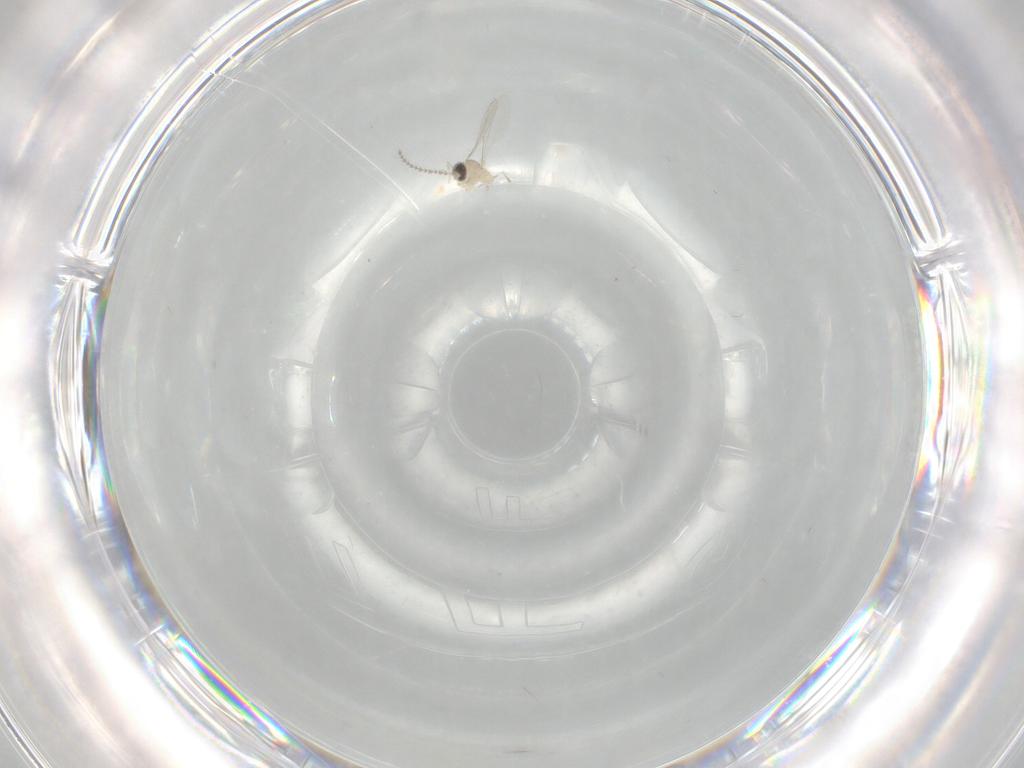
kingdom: Animalia
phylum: Arthropoda
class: Insecta
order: Diptera
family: Cecidomyiidae
